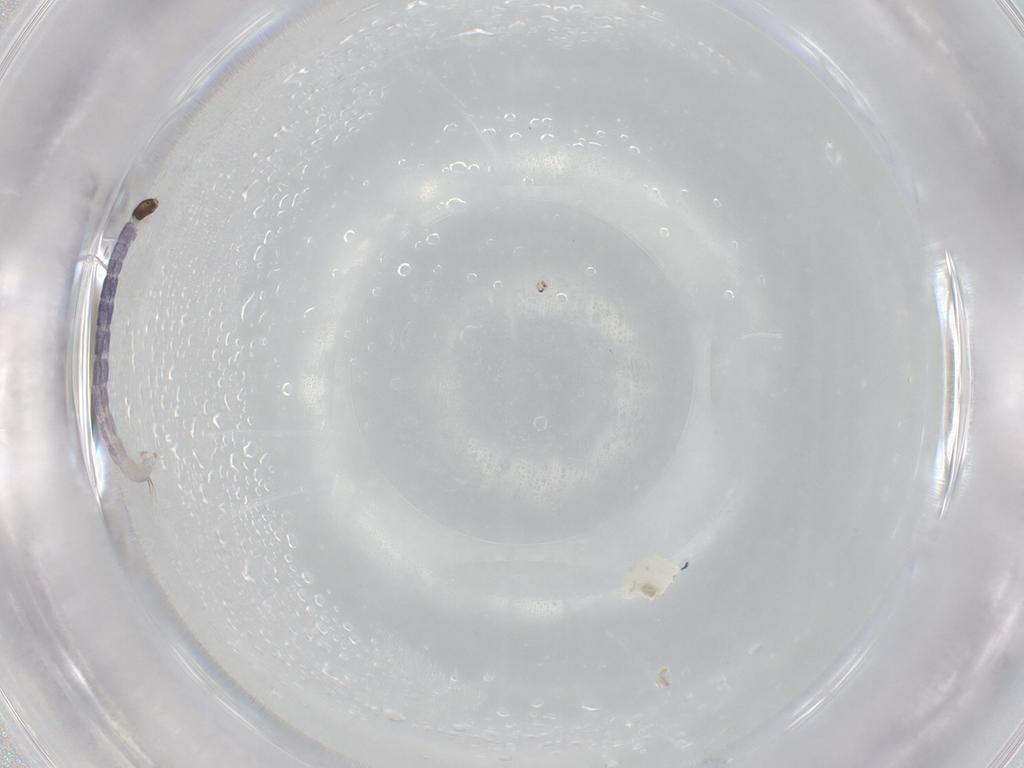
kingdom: Animalia
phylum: Arthropoda
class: Insecta
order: Diptera
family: Chironomidae
